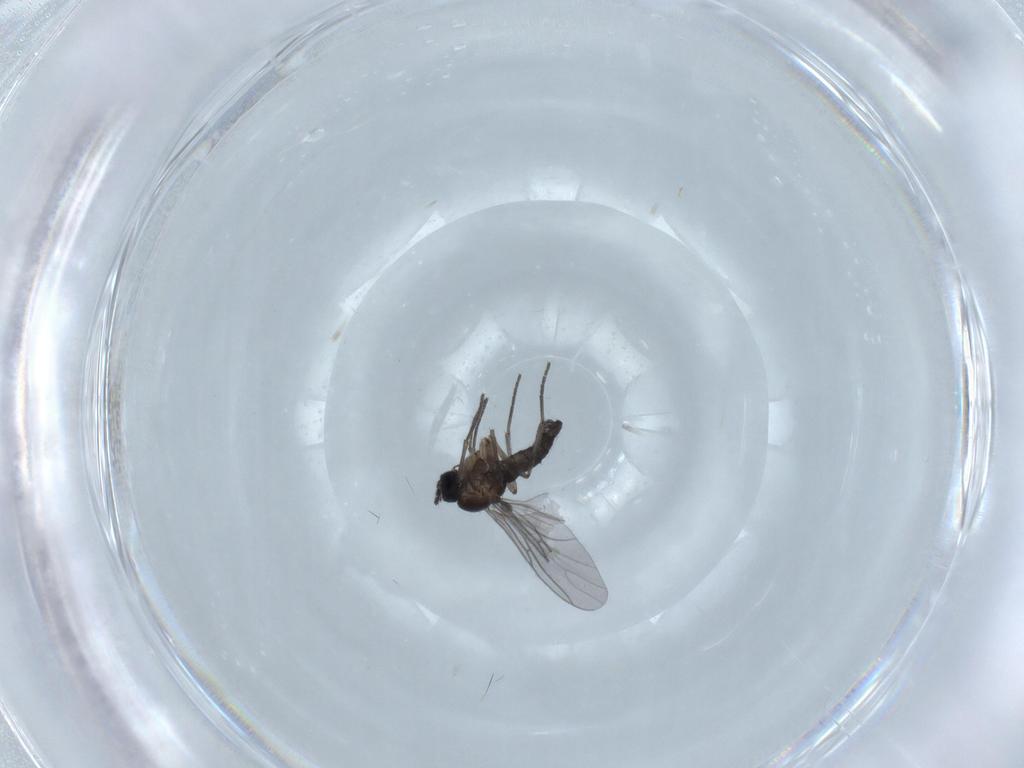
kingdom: Animalia
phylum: Arthropoda
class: Insecta
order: Diptera
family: Sciaridae
